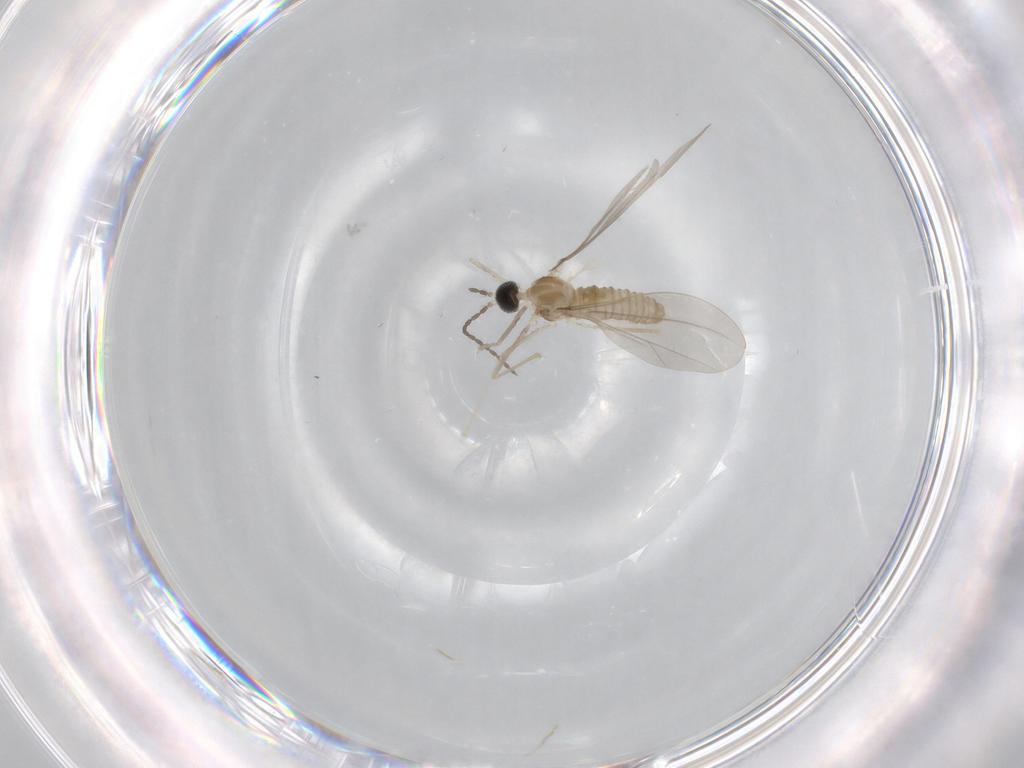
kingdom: Animalia
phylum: Arthropoda
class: Insecta
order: Diptera
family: Cecidomyiidae
